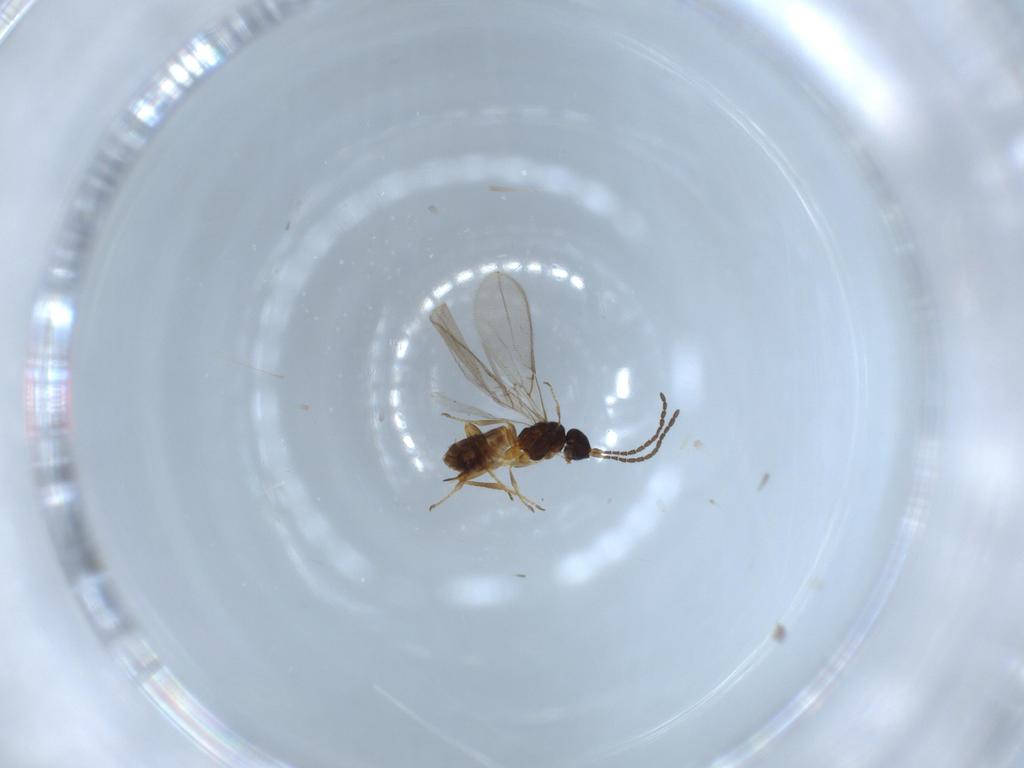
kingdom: Animalia
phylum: Arthropoda
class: Insecta
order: Hymenoptera
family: Braconidae
